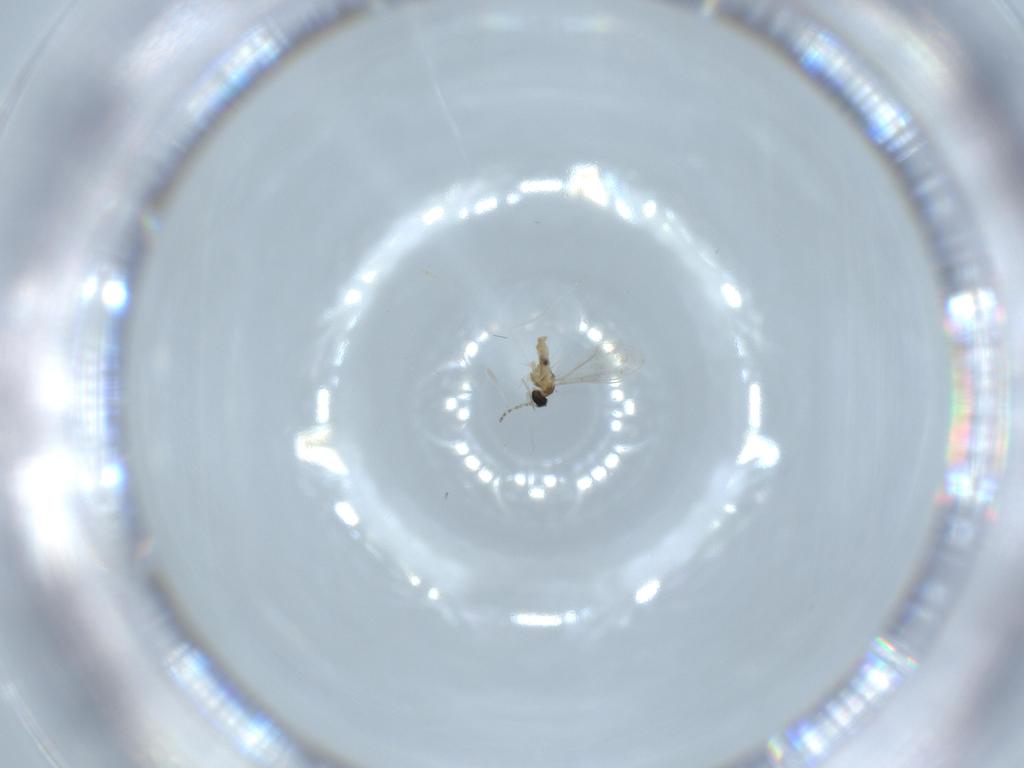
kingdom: Animalia
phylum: Arthropoda
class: Insecta
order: Diptera
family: Cecidomyiidae
